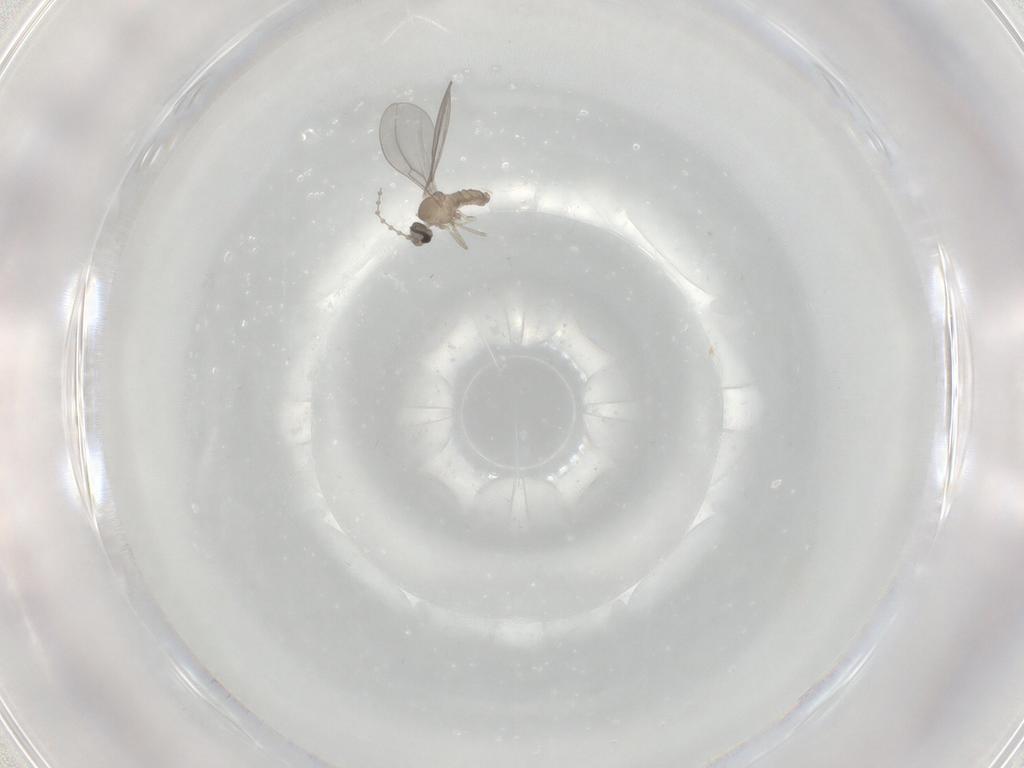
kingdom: Animalia
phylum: Arthropoda
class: Insecta
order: Diptera
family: Cecidomyiidae
